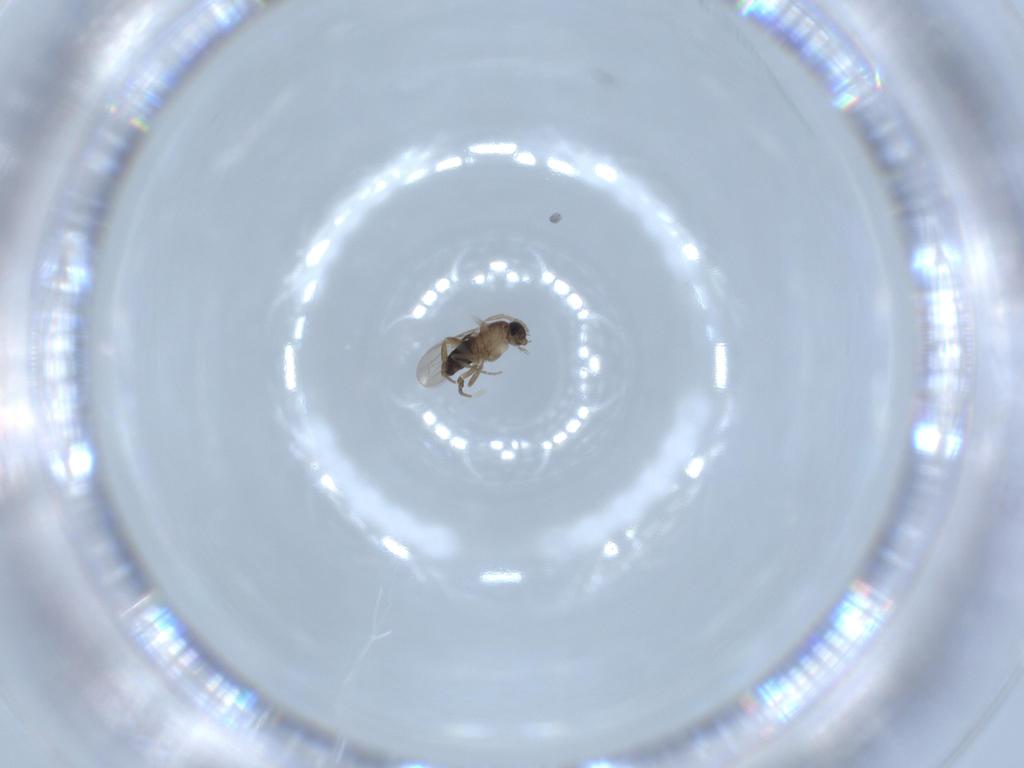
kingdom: Animalia
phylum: Arthropoda
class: Insecta
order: Diptera
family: Phoridae
